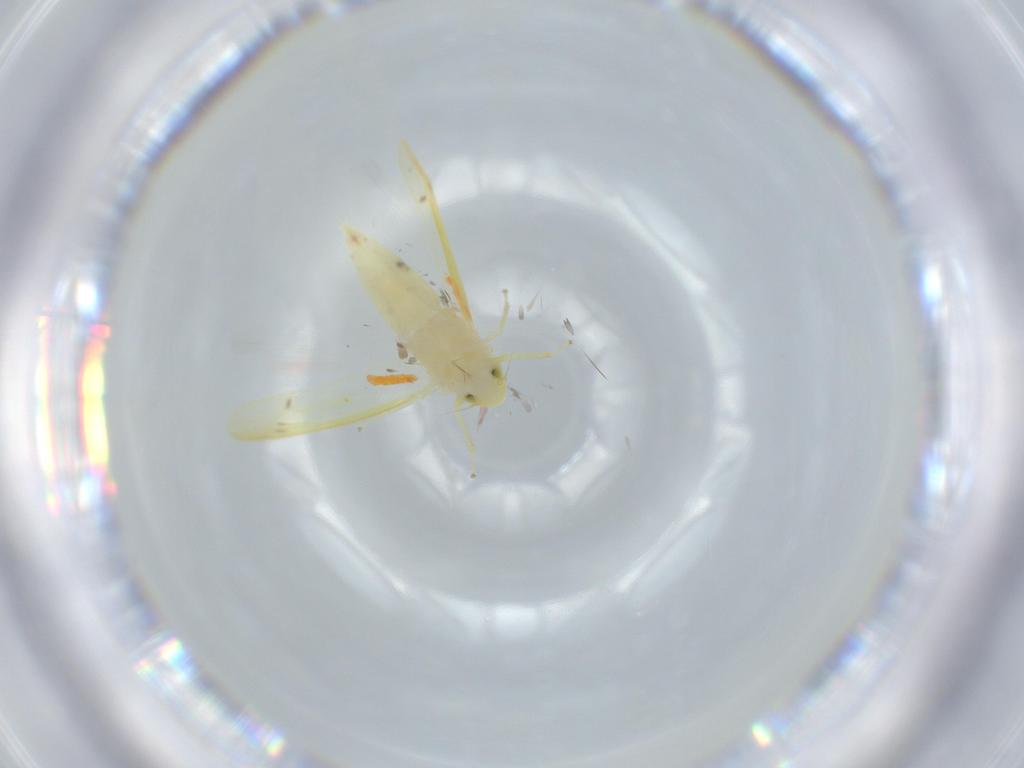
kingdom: Animalia
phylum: Arthropoda
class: Insecta
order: Hemiptera
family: Cicadellidae
